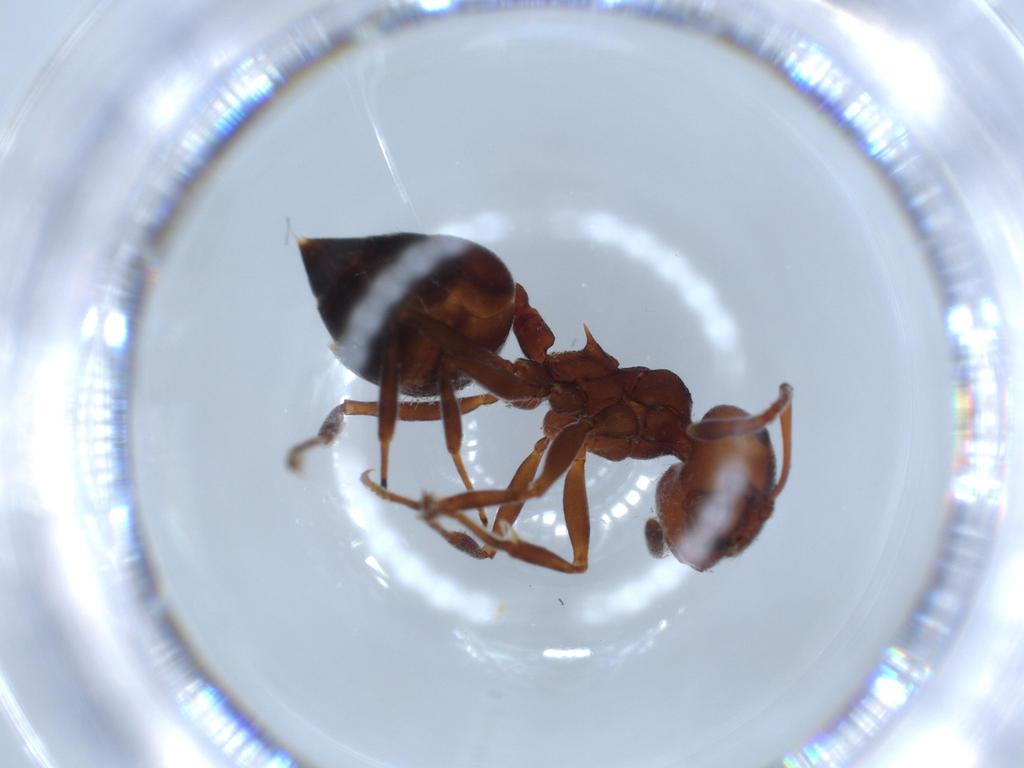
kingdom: Animalia
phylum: Arthropoda
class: Insecta
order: Hymenoptera
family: Formicidae
